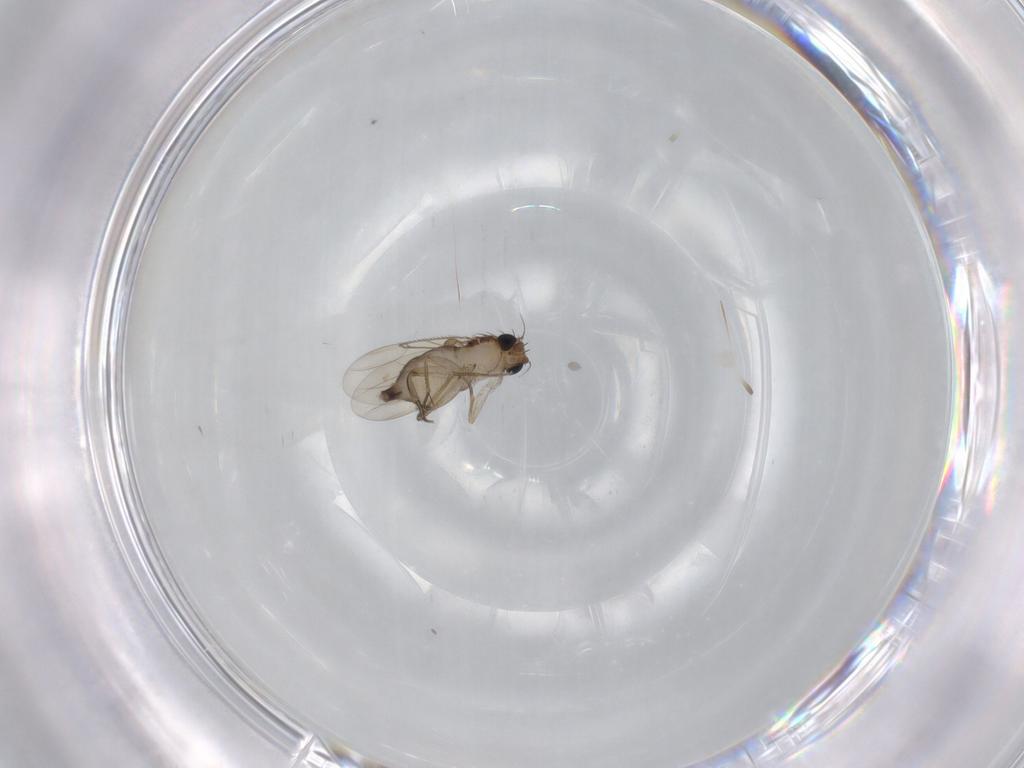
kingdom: Animalia
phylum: Arthropoda
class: Insecta
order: Diptera
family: Phoridae
